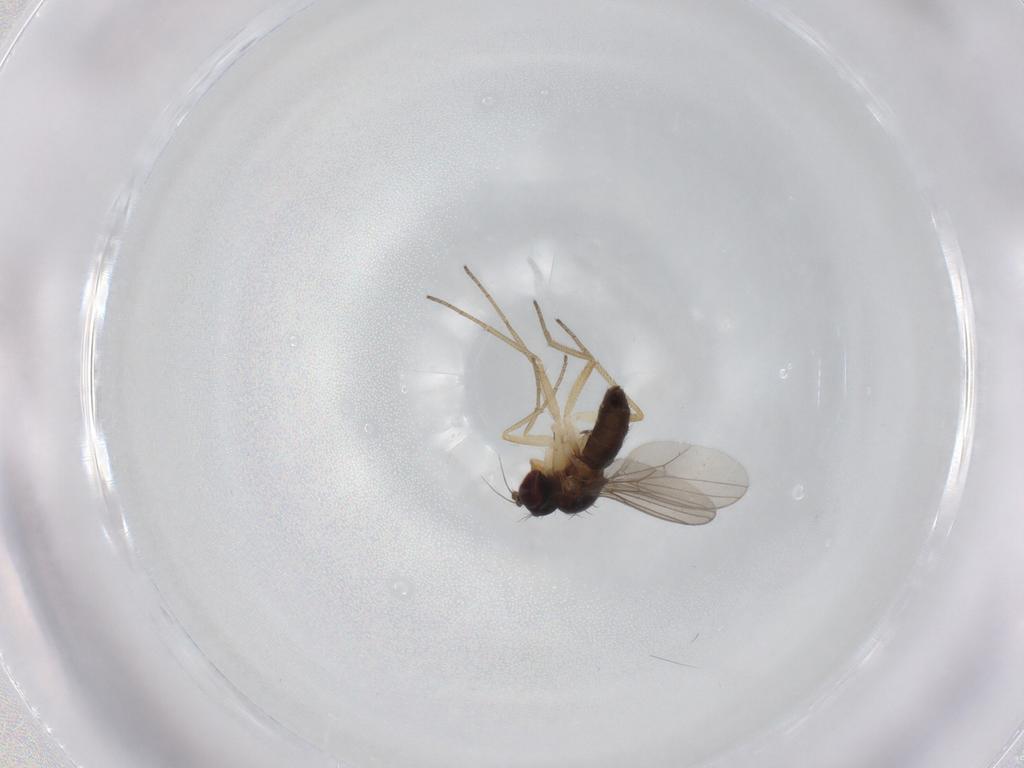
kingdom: Animalia
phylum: Arthropoda
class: Insecta
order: Diptera
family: Dolichopodidae
